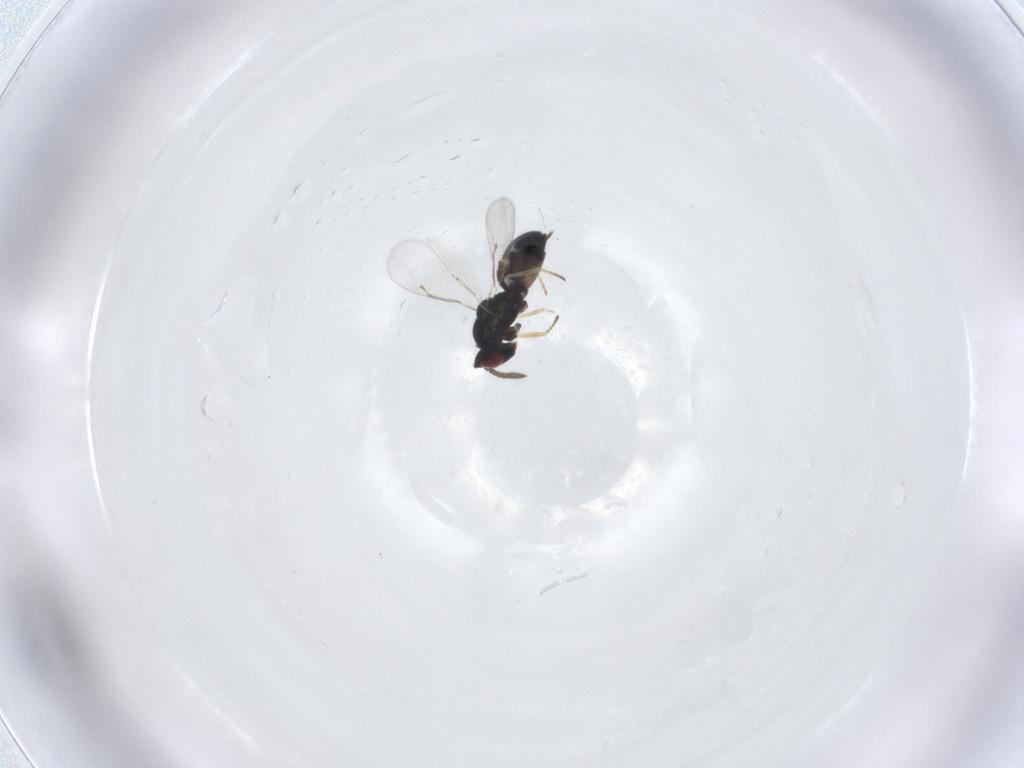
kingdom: Animalia
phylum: Arthropoda
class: Insecta
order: Hymenoptera
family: Eulophidae
